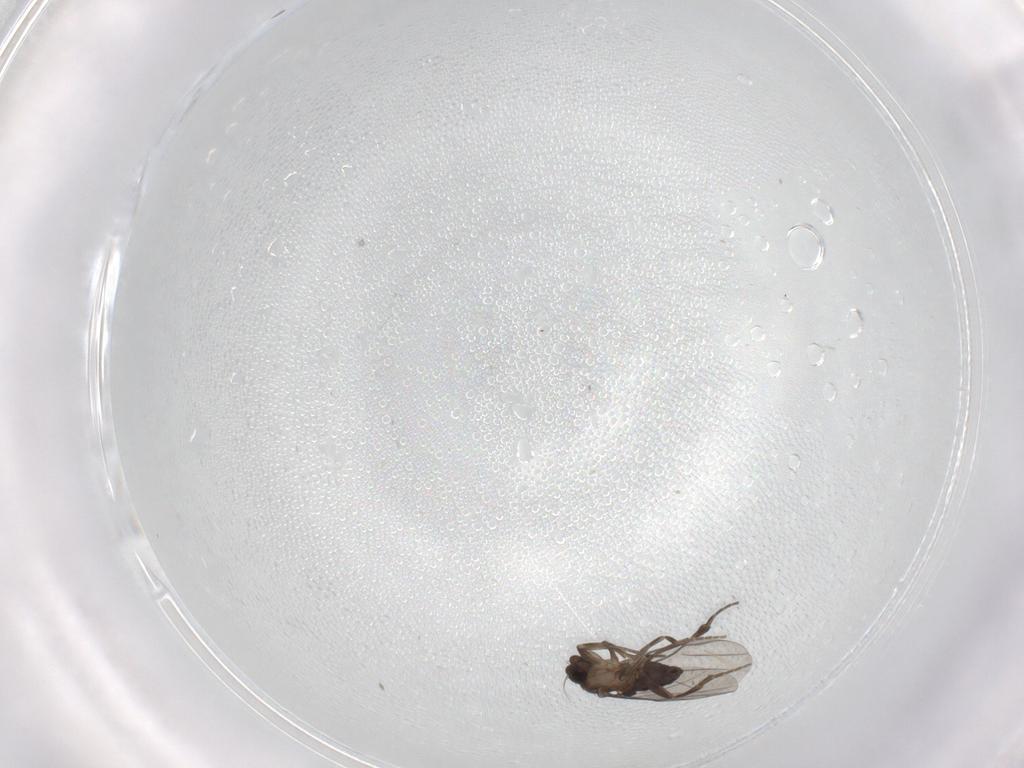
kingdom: Animalia
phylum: Arthropoda
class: Insecta
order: Diptera
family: Phoridae
